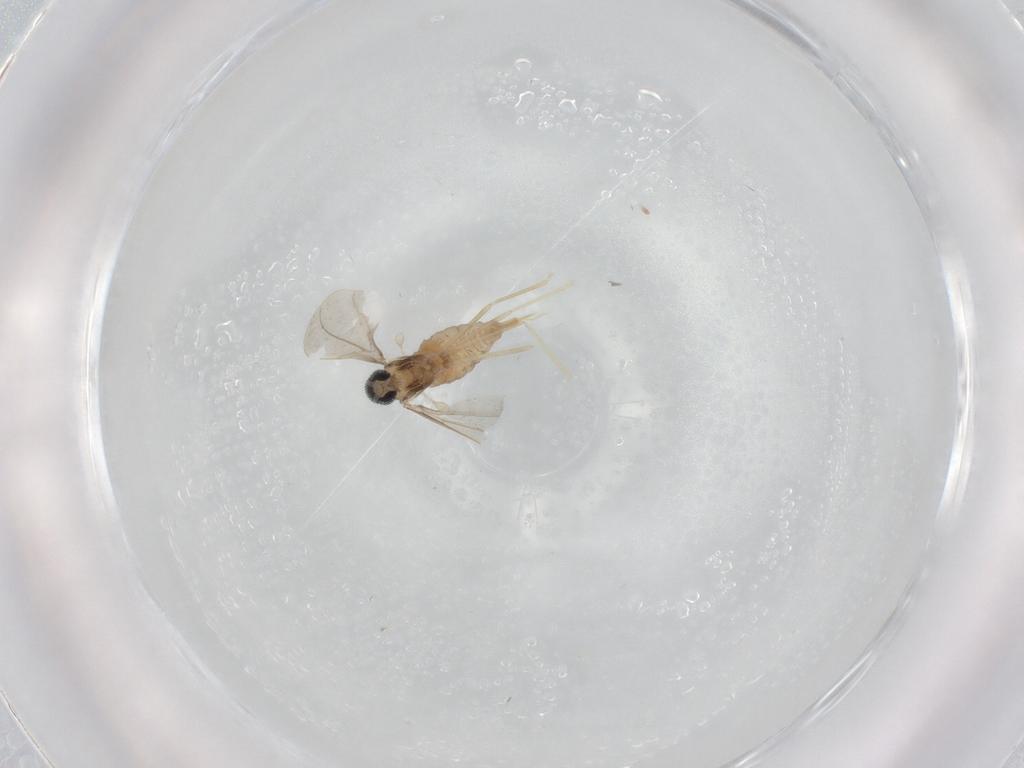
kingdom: Animalia
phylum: Arthropoda
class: Insecta
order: Diptera
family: Cecidomyiidae
